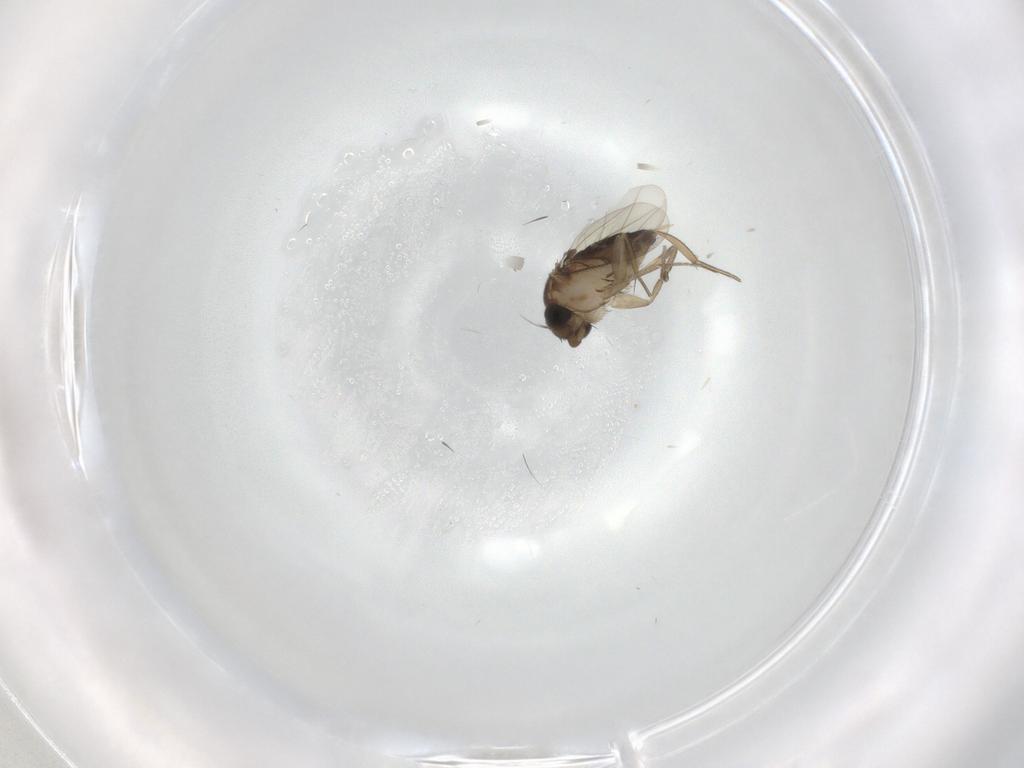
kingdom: Animalia
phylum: Arthropoda
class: Insecta
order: Diptera
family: Phoridae
